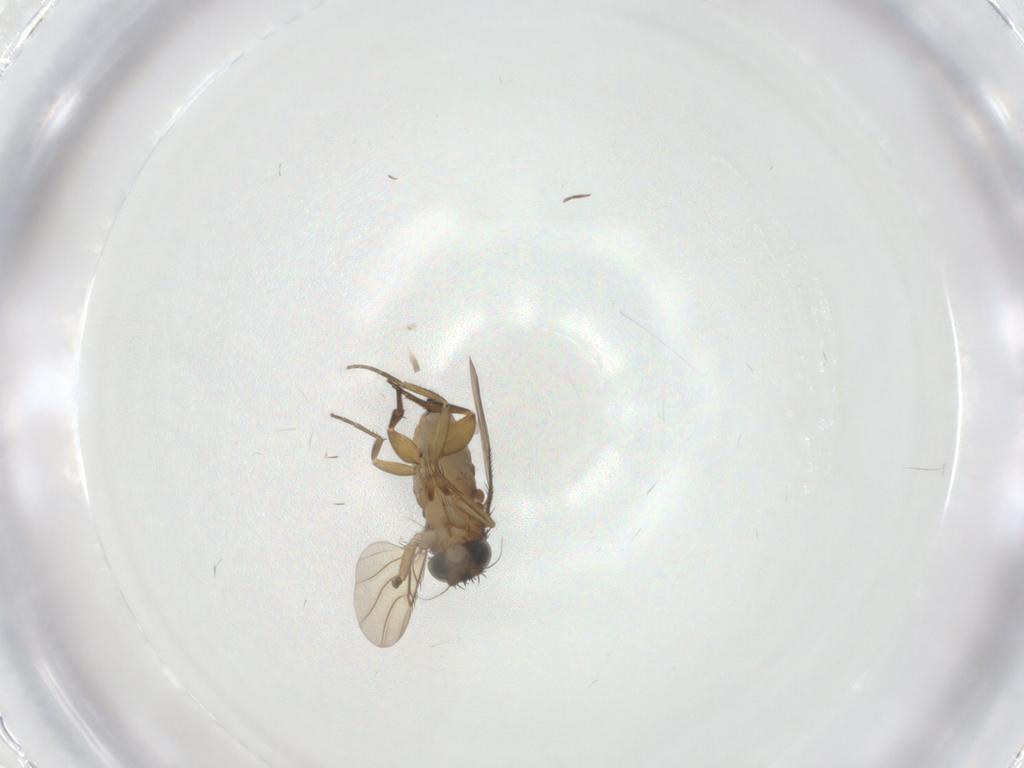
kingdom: Animalia
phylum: Arthropoda
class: Insecta
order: Diptera
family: Phoridae
